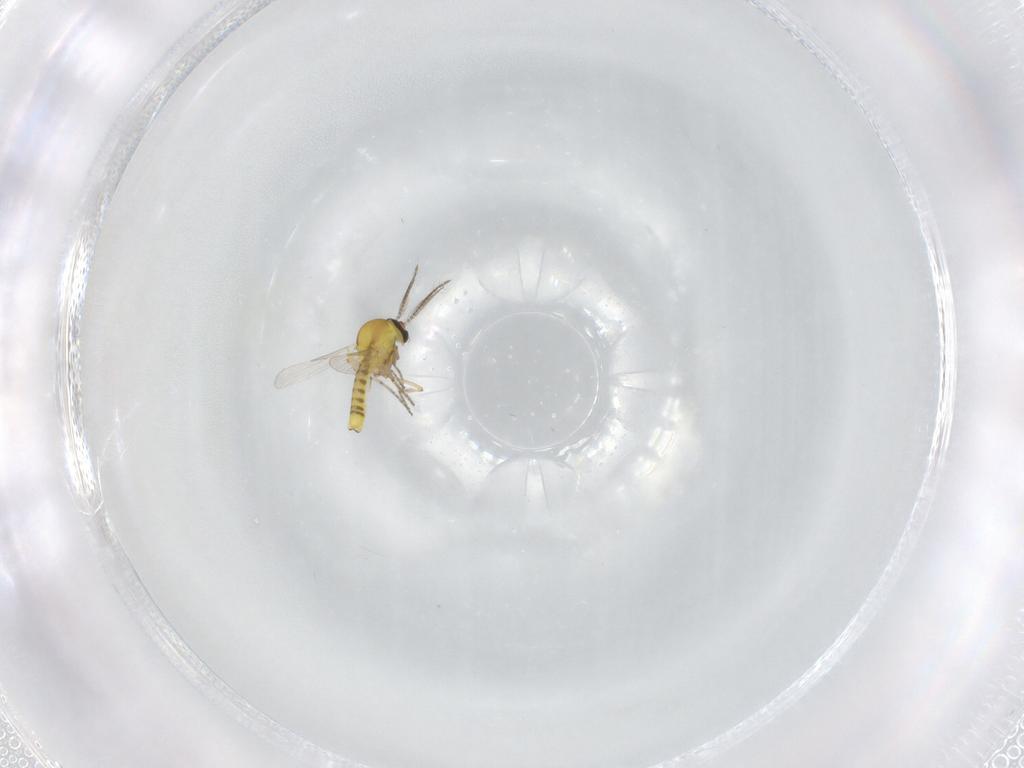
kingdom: Animalia
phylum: Arthropoda
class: Insecta
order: Diptera
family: Ceratopogonidae
